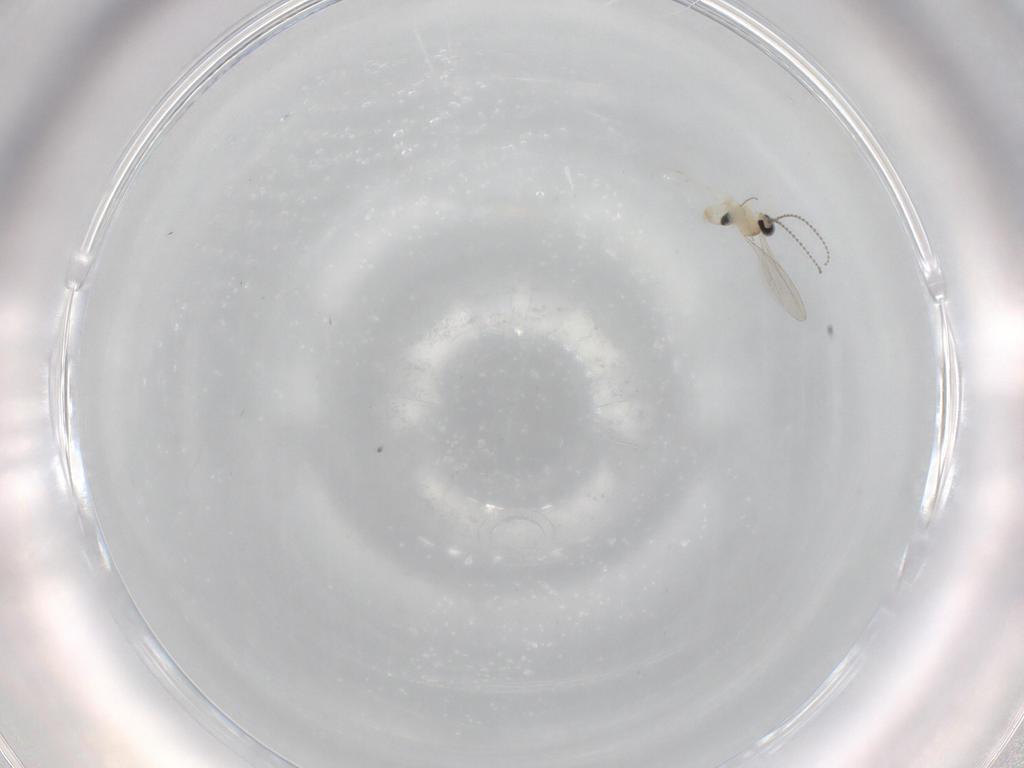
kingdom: Animalia
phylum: Arthropoda
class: Insecta
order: Diptera
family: Cecidomyiidae
